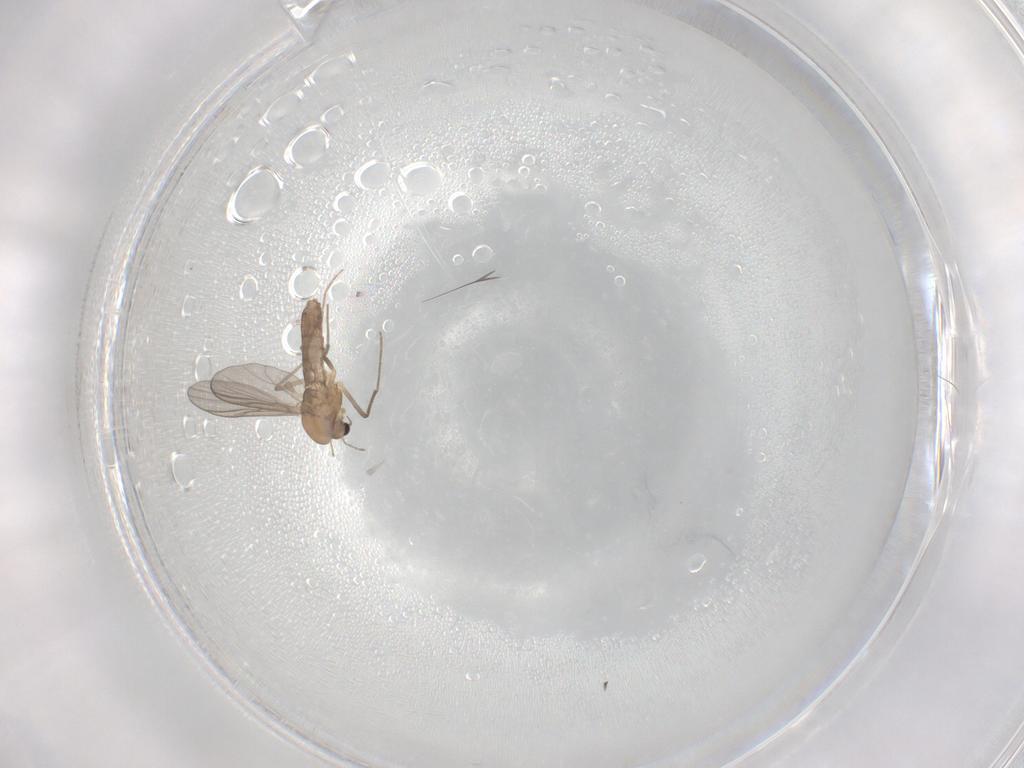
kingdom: Animalia
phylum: Arthropoda
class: Insecta
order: Diptera
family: Chironomidae
